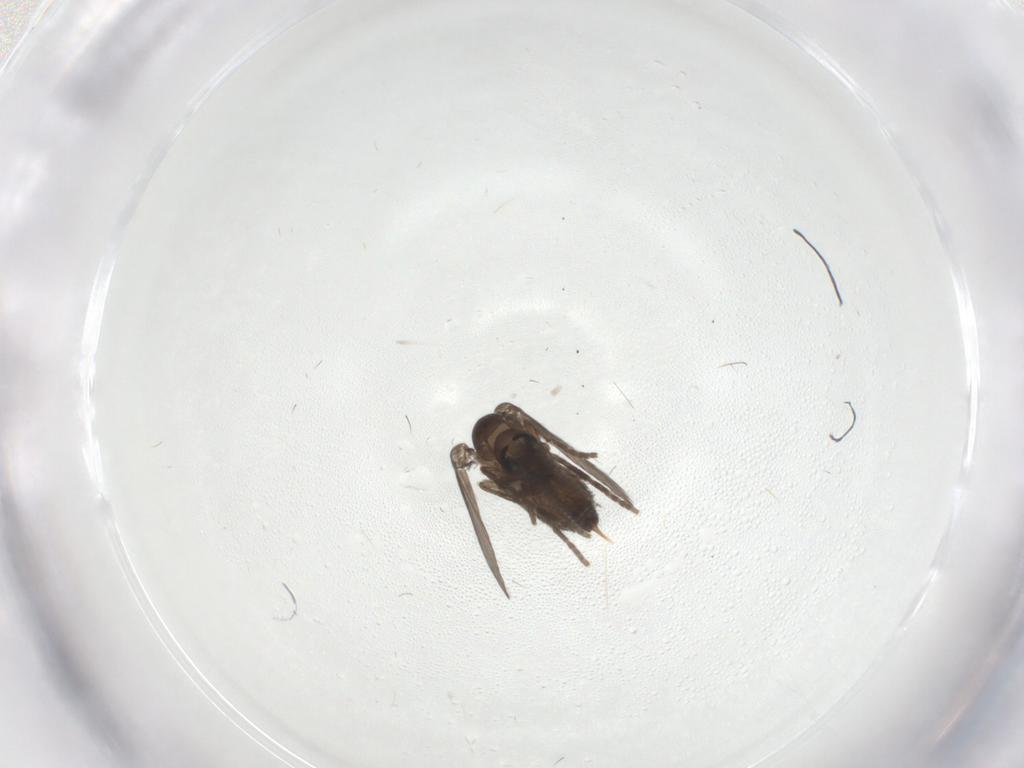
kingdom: Animalia
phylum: Arthropoda
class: Insecta
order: Diptera
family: Psychodidae
